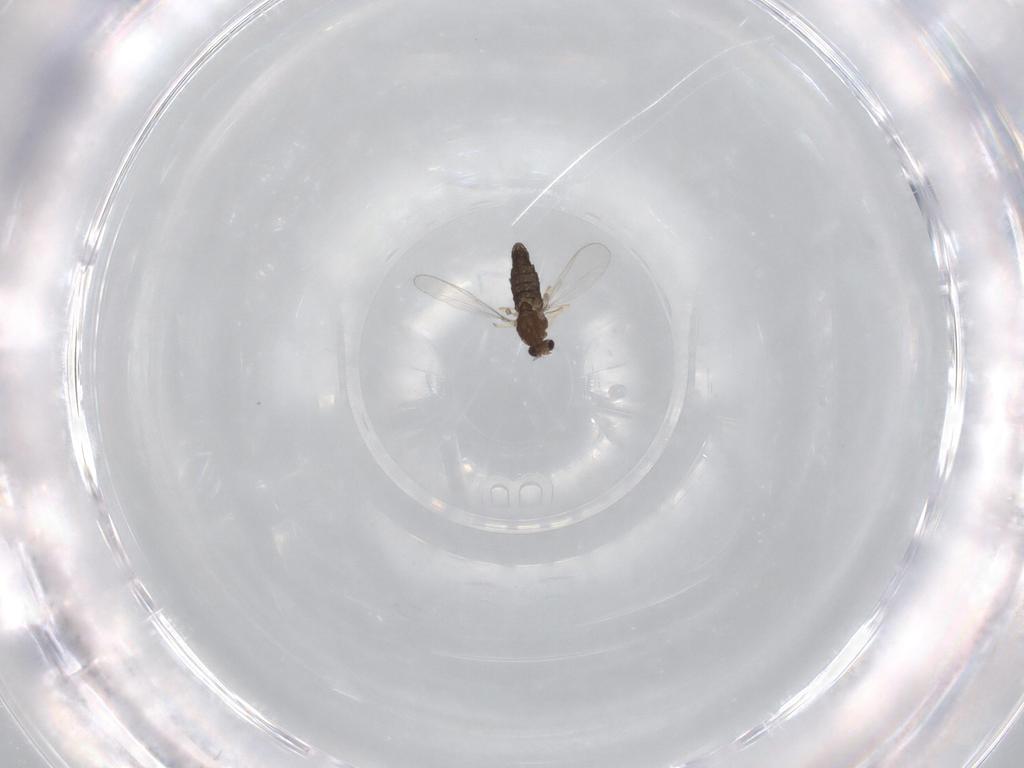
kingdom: Animalia
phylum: Arthropoda
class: Insecta
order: Diptera
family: Chironomidae
